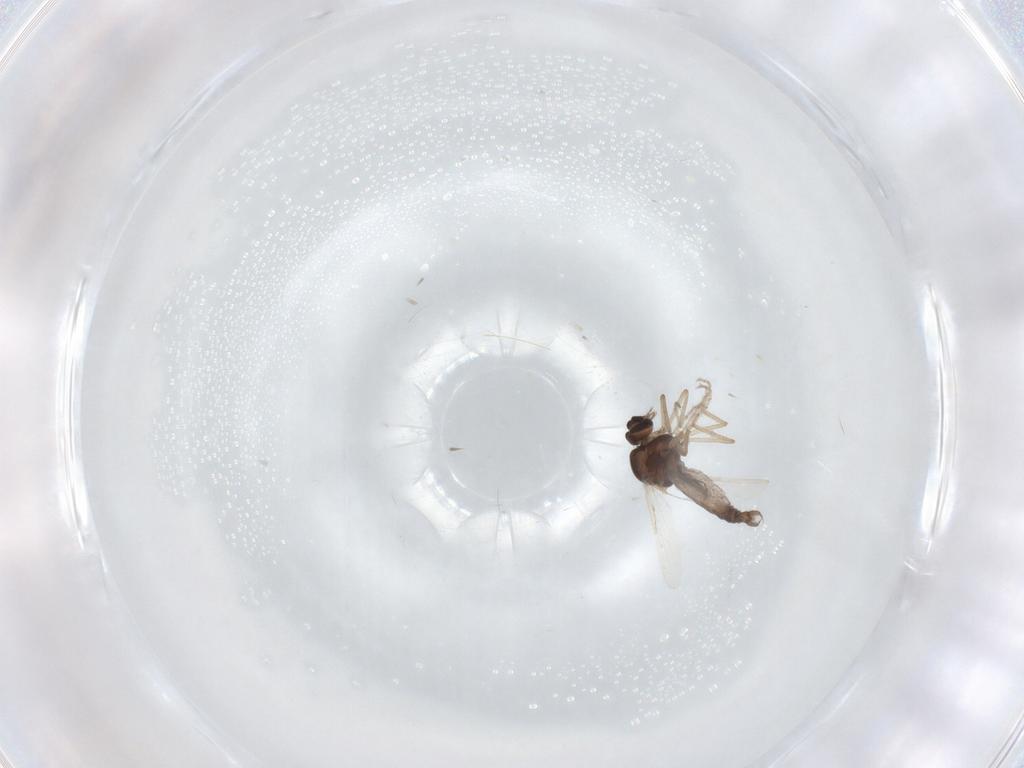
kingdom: Animalia
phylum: Arthropoda
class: Insecta
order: Diptera
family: Ceratopogonidae
